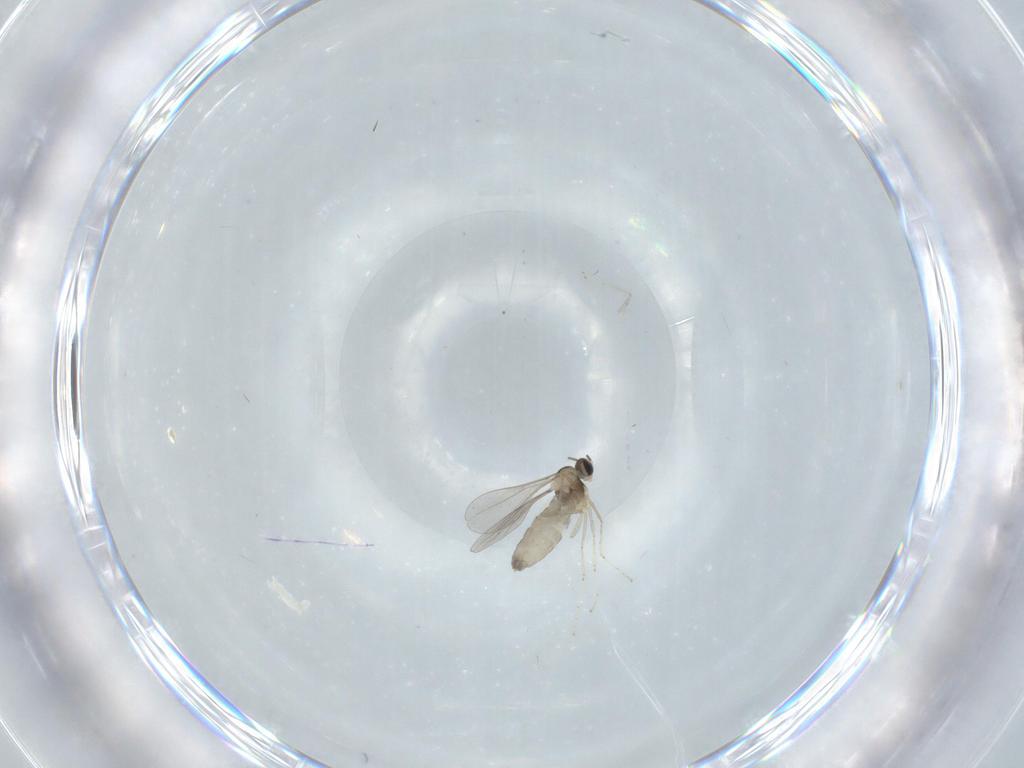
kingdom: Animalia
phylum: Arthropoda
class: Insecta
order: Diptera
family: Cecidomyiidae
